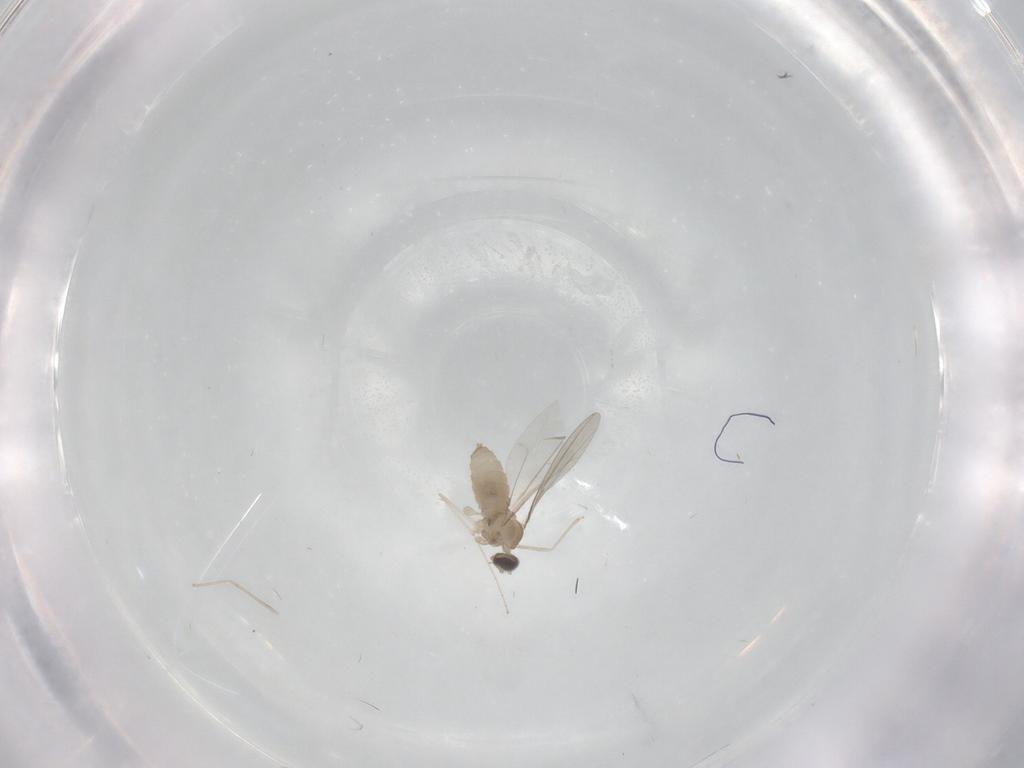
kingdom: Animalia
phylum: Arthropoda
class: Insecta
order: Diptera
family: Cecidomyiidae
